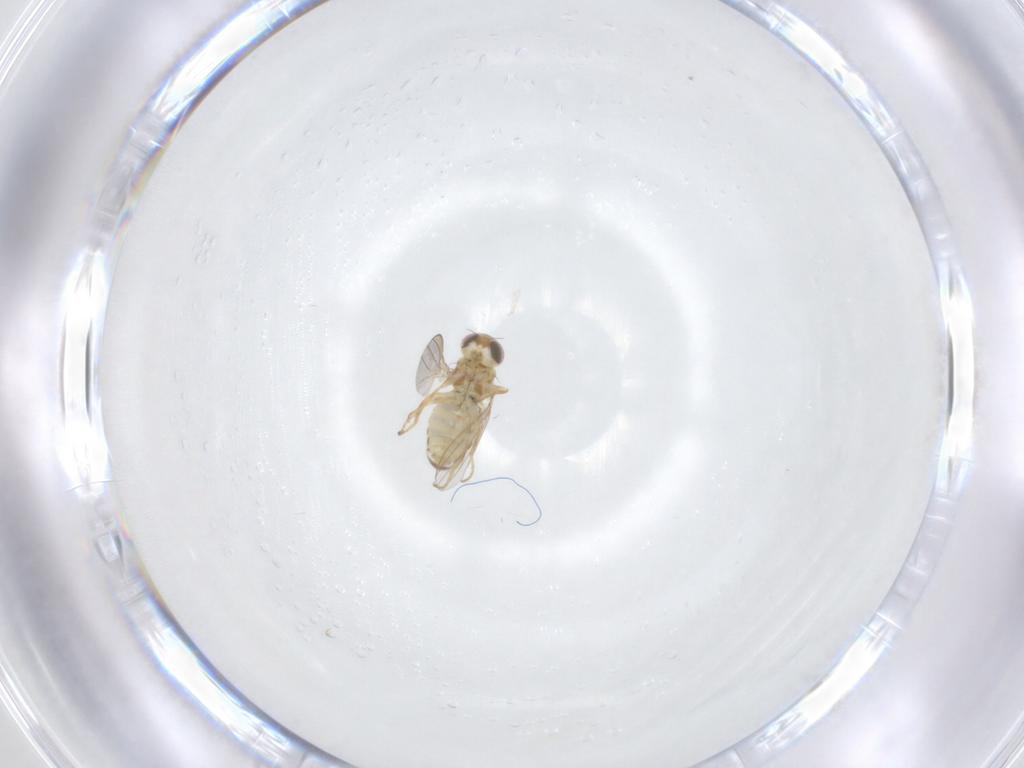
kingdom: Animalia
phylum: Arthropoda
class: Insecta
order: Diptera
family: Chyromyidae
